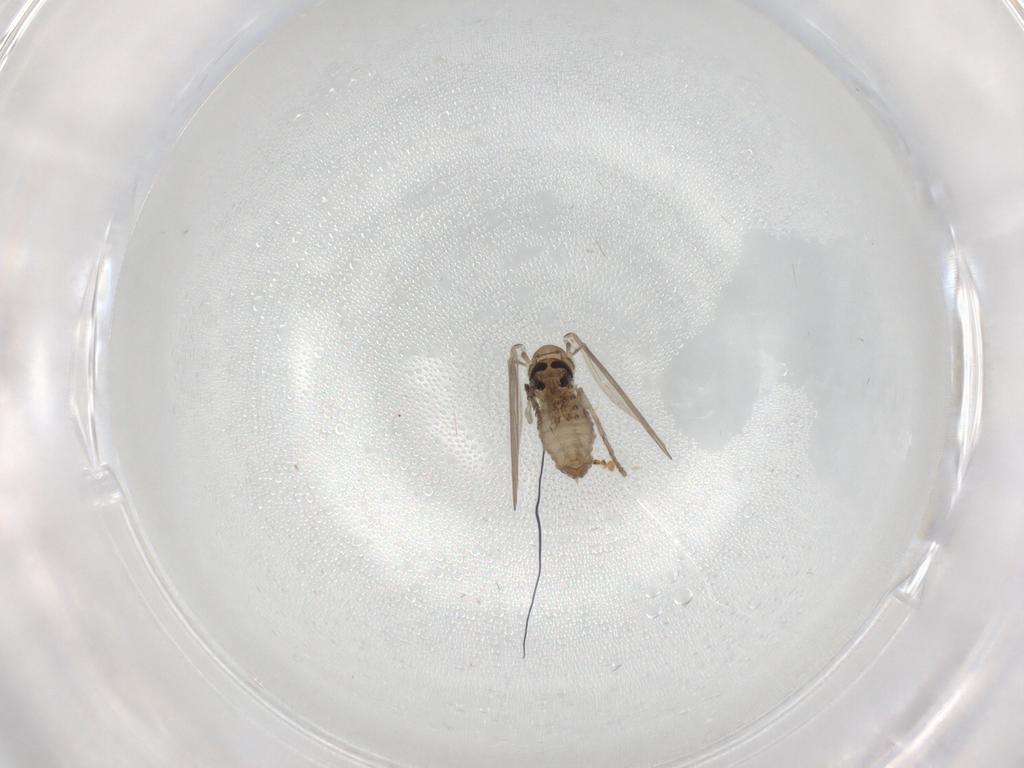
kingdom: Animalia
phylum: Arthropoda
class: Insecta
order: Diptera
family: Psychodidae
